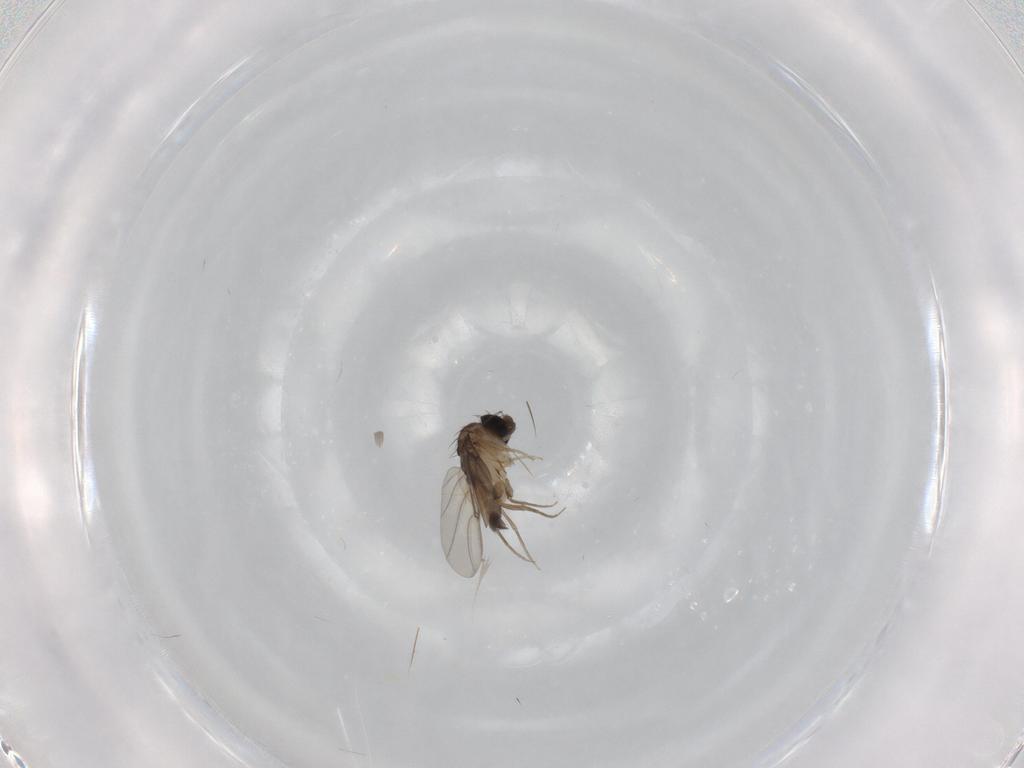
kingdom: Animalia
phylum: Arthropoda
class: Insecta
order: Diptera
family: Phoridae
